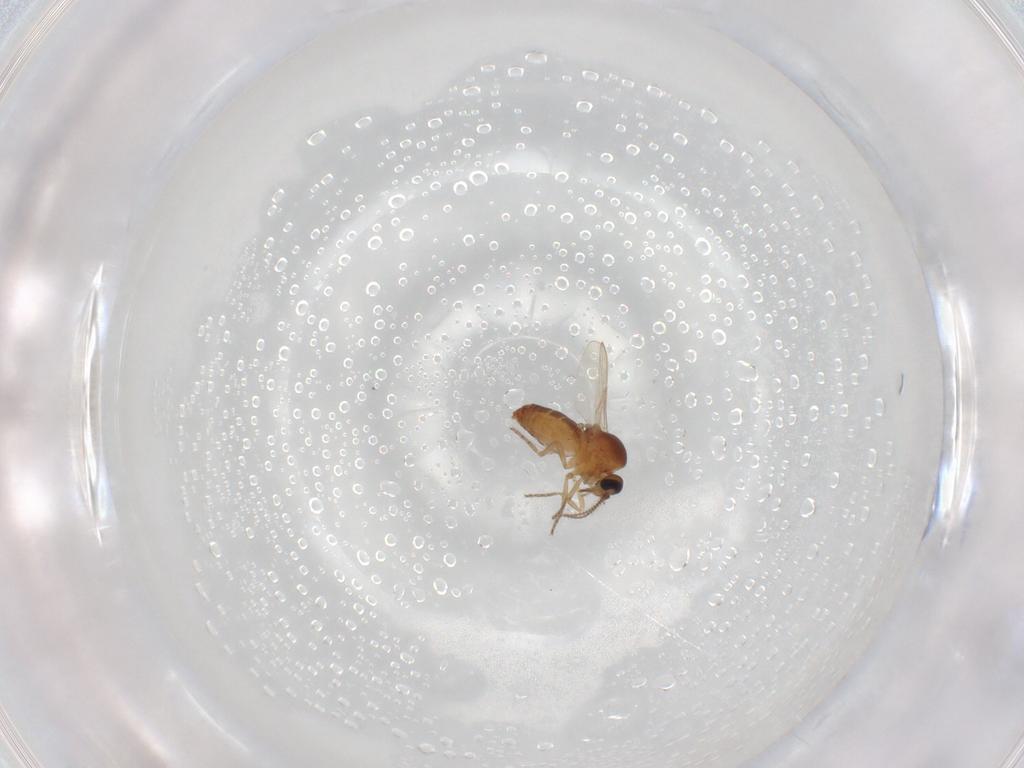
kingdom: Animalia
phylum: Arthropoda
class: Insecta
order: Diptera
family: Ceratopogonidae
